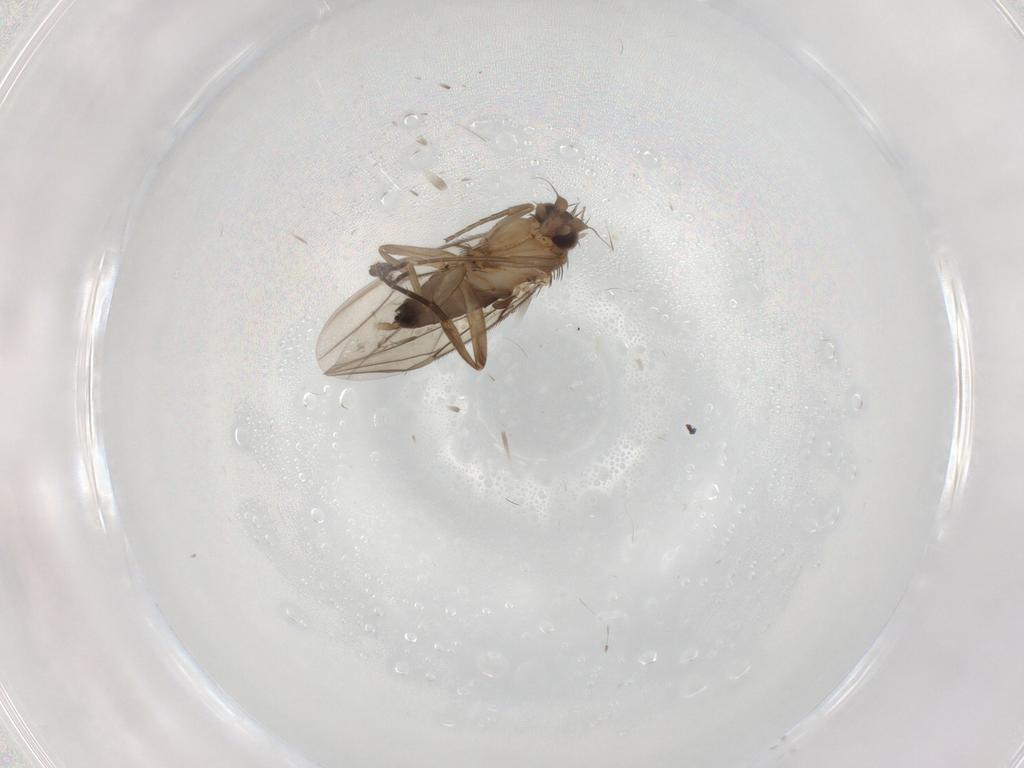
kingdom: Animalia
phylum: Arthropoda
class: Insecta
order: Diptera
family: Phoridae
